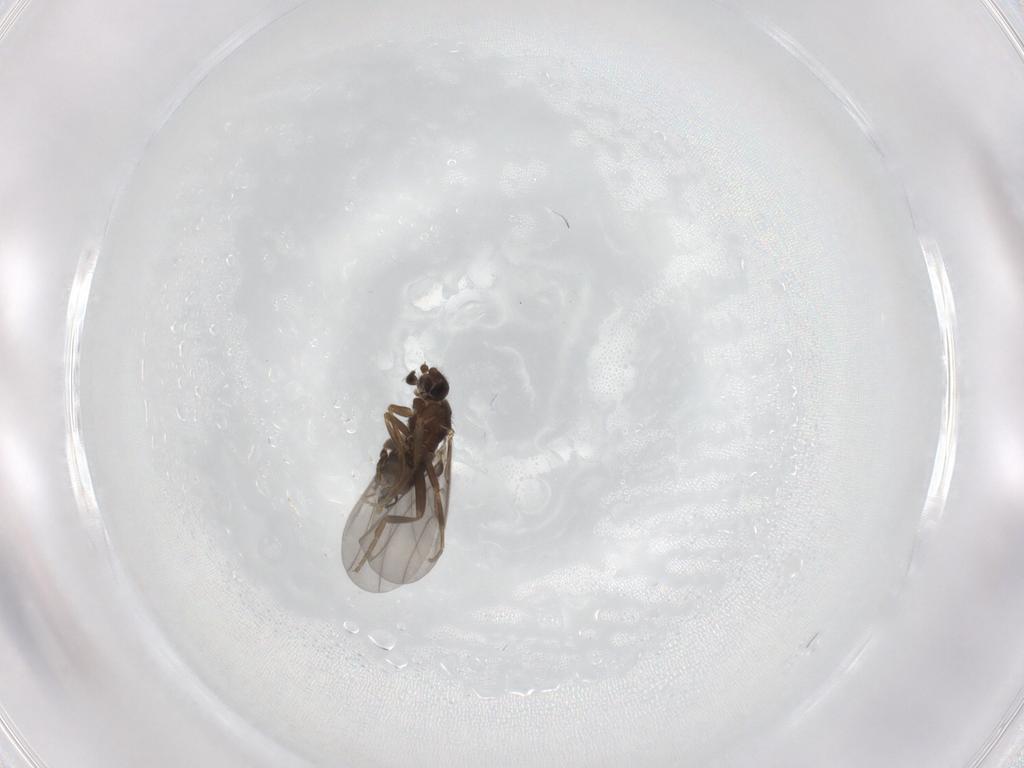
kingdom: Animalia
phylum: Arthropoda
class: Insecta
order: Diptera
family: Phoridae
